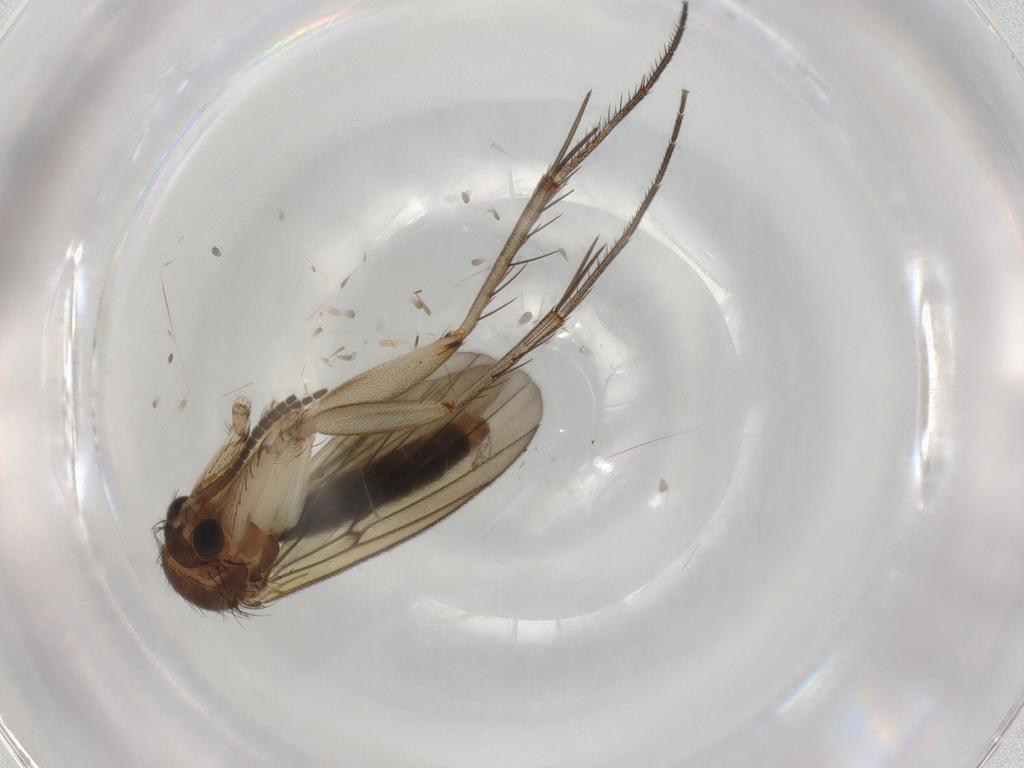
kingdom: Animalia
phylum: Arthropoda
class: Insecta
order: Diptera
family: Mycetophilidae
